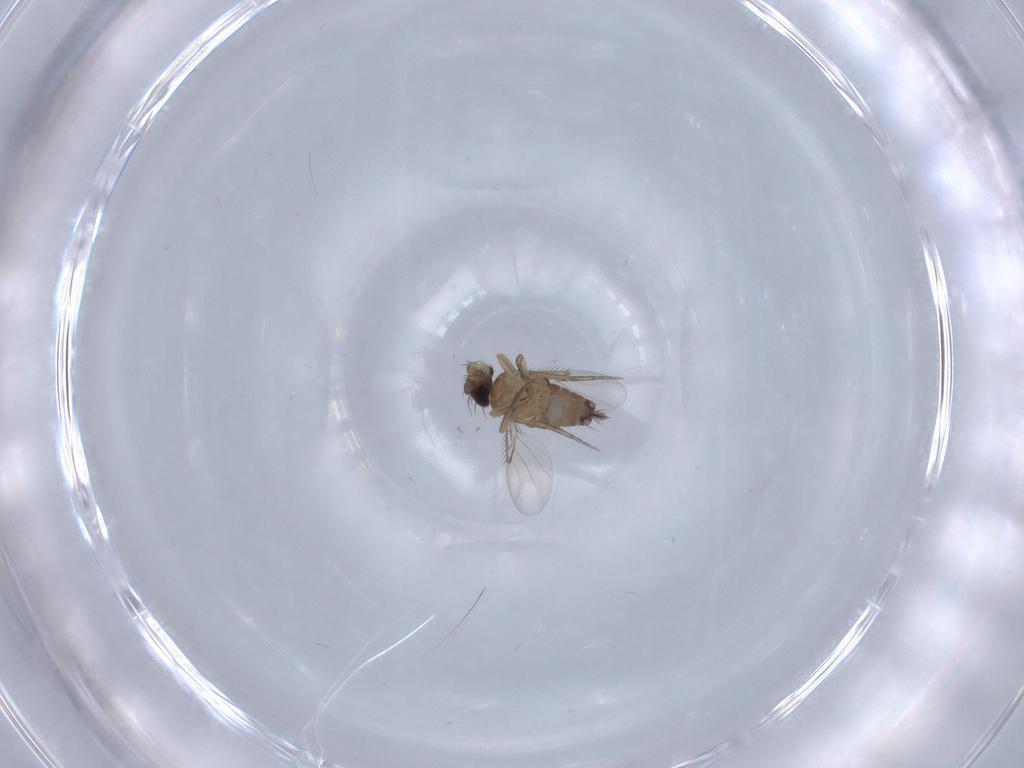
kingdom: Animalia
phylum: Arthropoda
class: Insecta
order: Diptera
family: Phoridae
